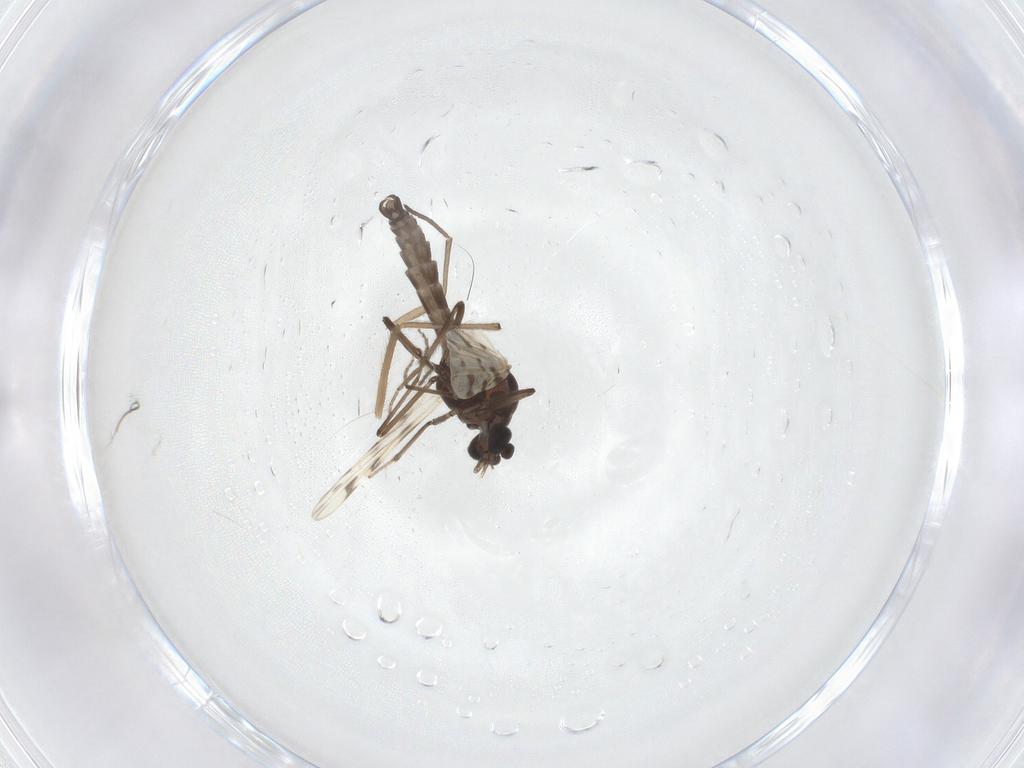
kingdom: Animalia
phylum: Arthropoda
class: Insecta
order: Diptera
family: Ceratopogonidae
